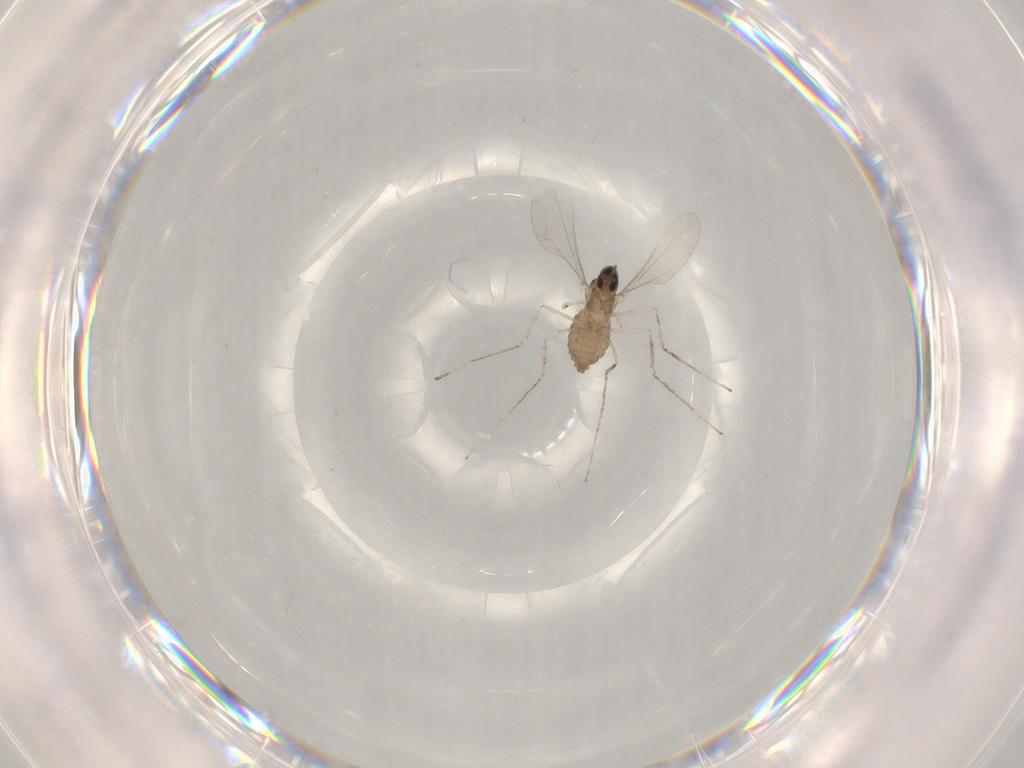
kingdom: Animalia
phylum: Arthropoda
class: Insecta
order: Diptera
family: Cecidomyiidae
